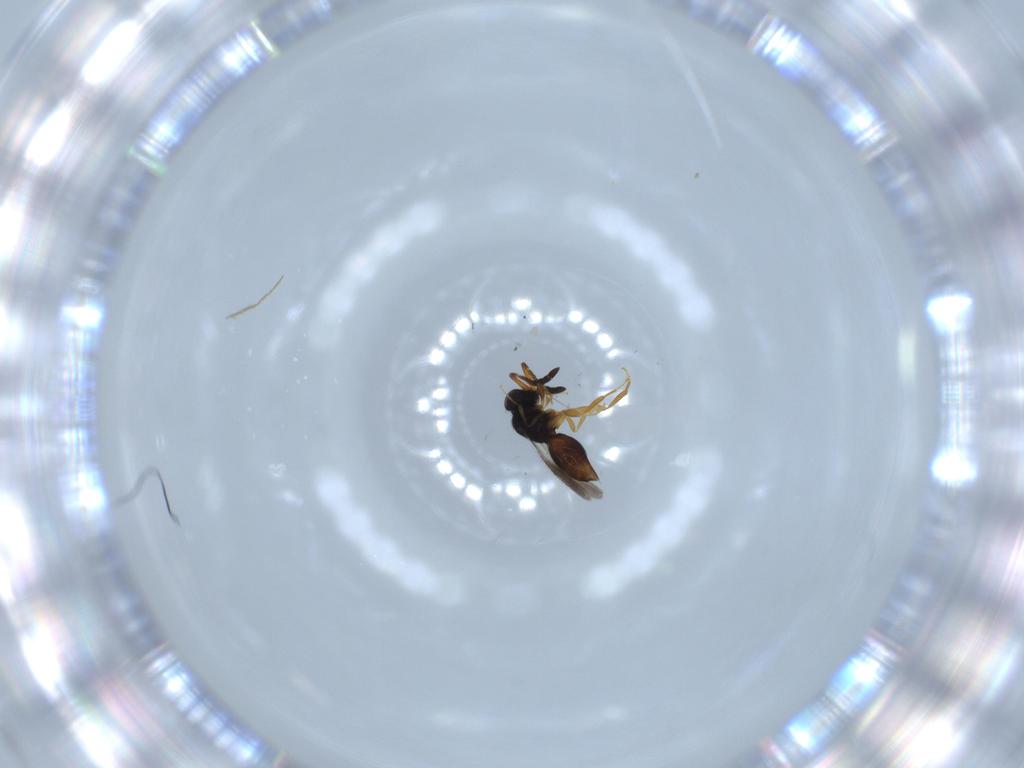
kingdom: Animalia
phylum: Arthropoda
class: Insecta
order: Hymenoptera
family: Ceraphronidae
